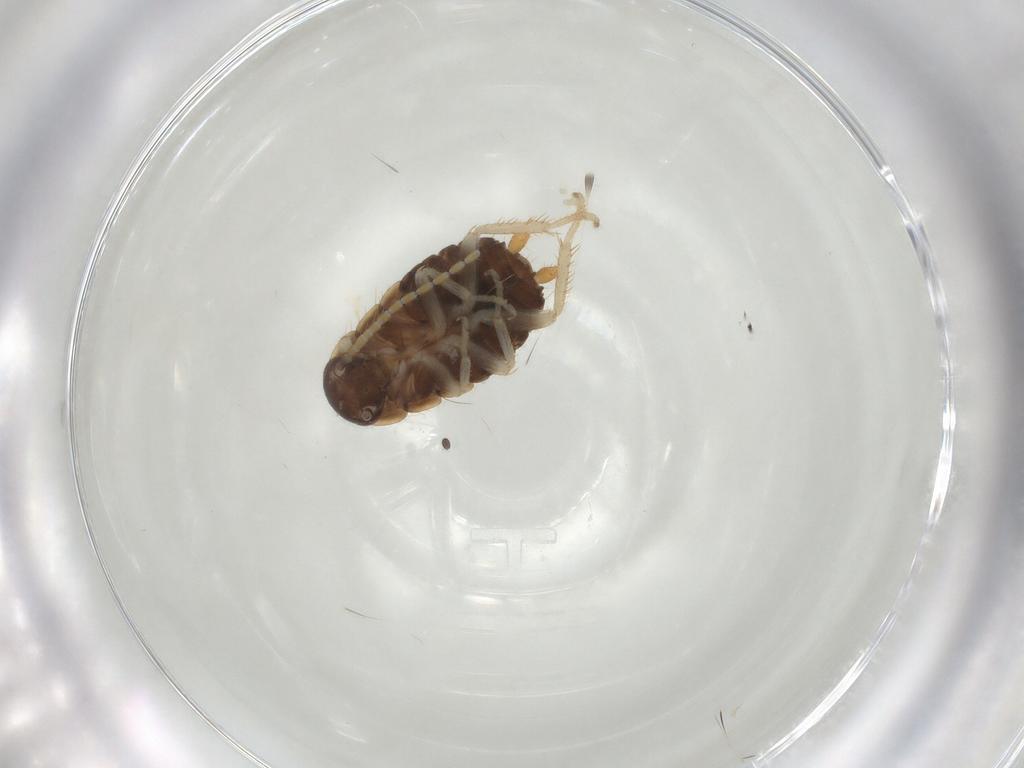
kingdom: Animalia
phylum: Arthropoda
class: Insecta
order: Blattodea
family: Ectobiidae
